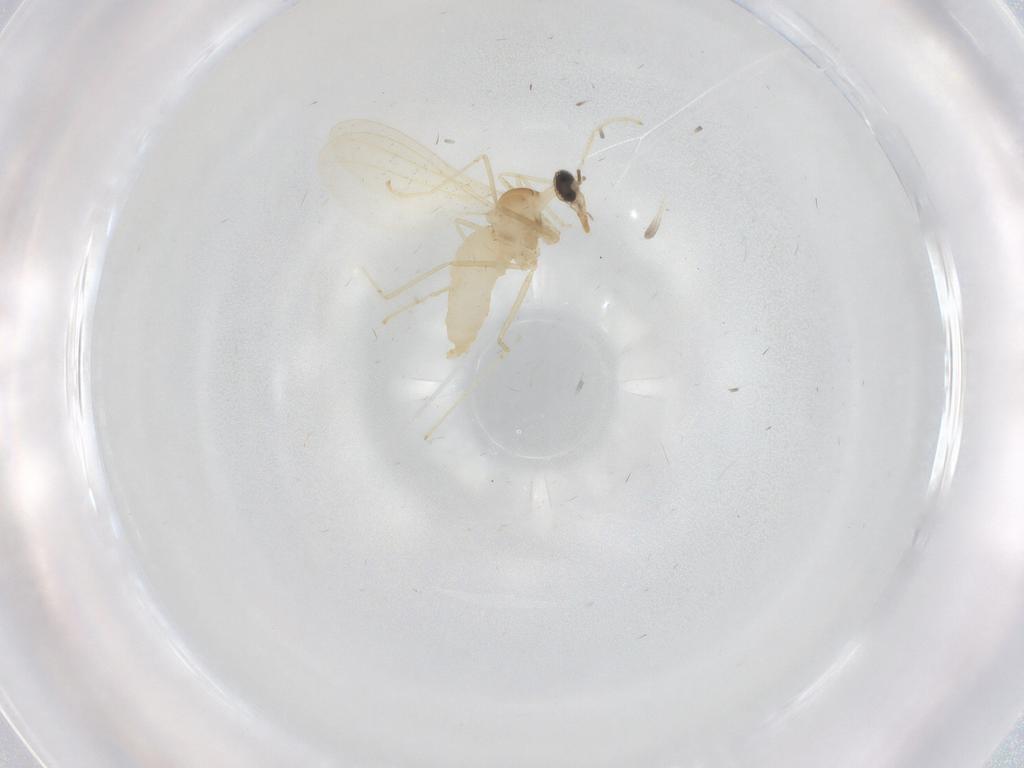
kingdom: Animalia
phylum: Arthropoda
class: Insecta
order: Diptera
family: Cecidomyiidae
